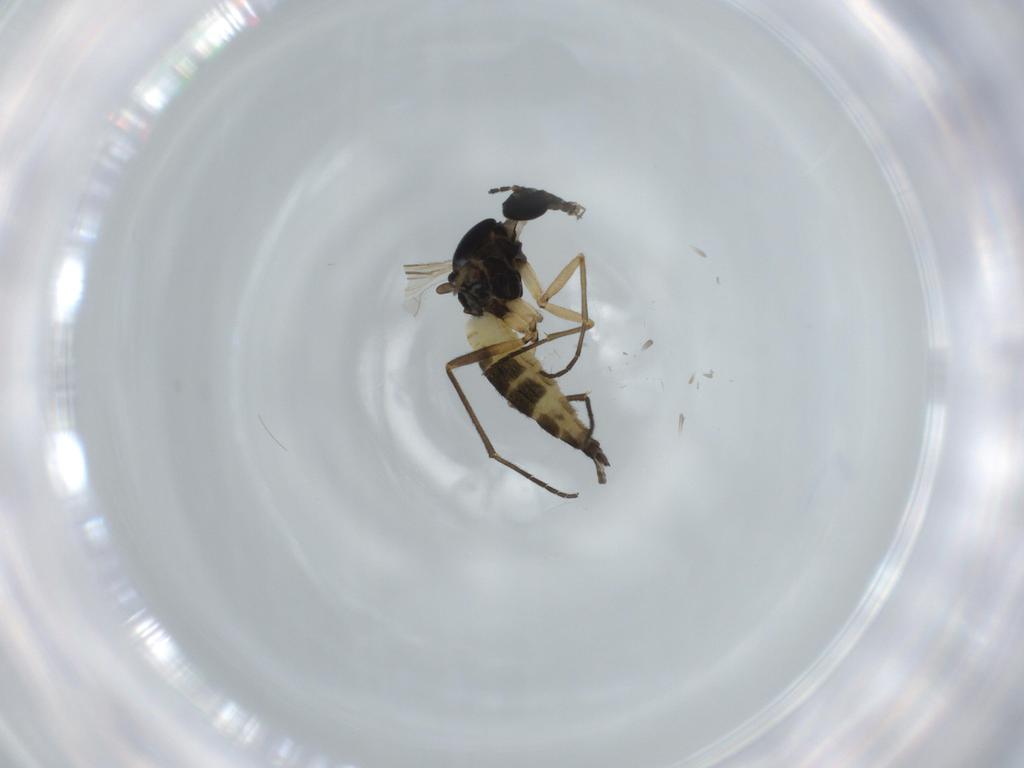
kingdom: Animalia
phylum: Arthropoda
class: Insecta
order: Diptera
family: Sciaridae
